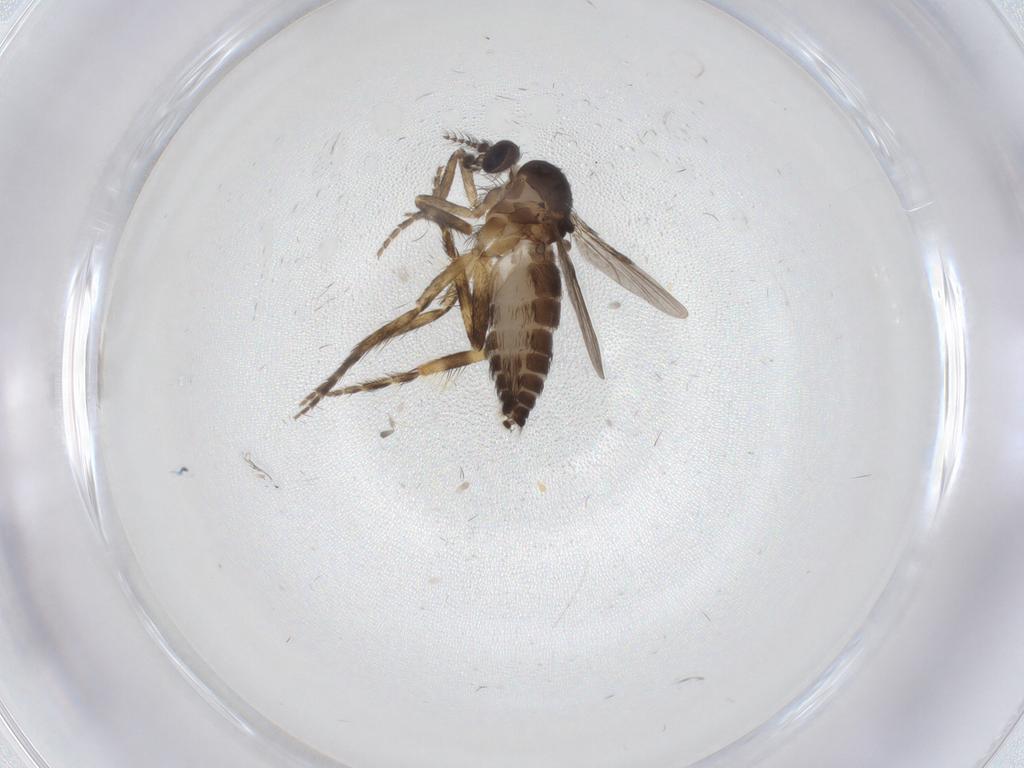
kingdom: Animalia
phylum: Arthropoda
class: Insecta
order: Diptera
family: Ceratopogonidae
